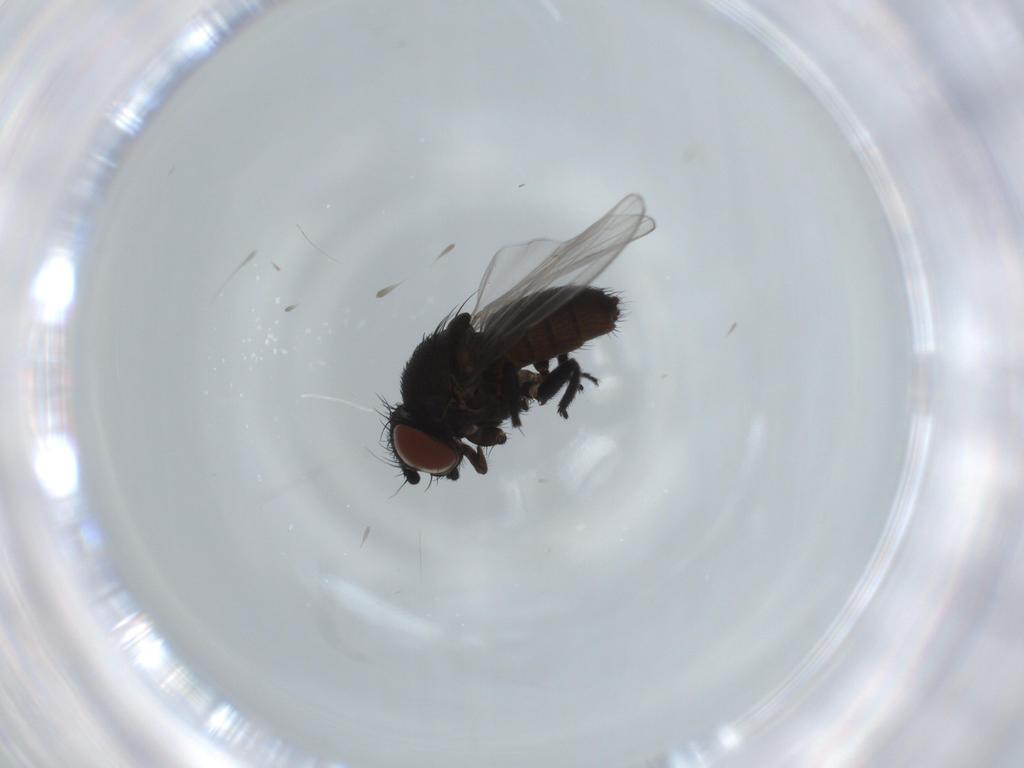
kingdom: Animalia
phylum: Arthropoda
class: Insecta
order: Diptera
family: Milichiidae
